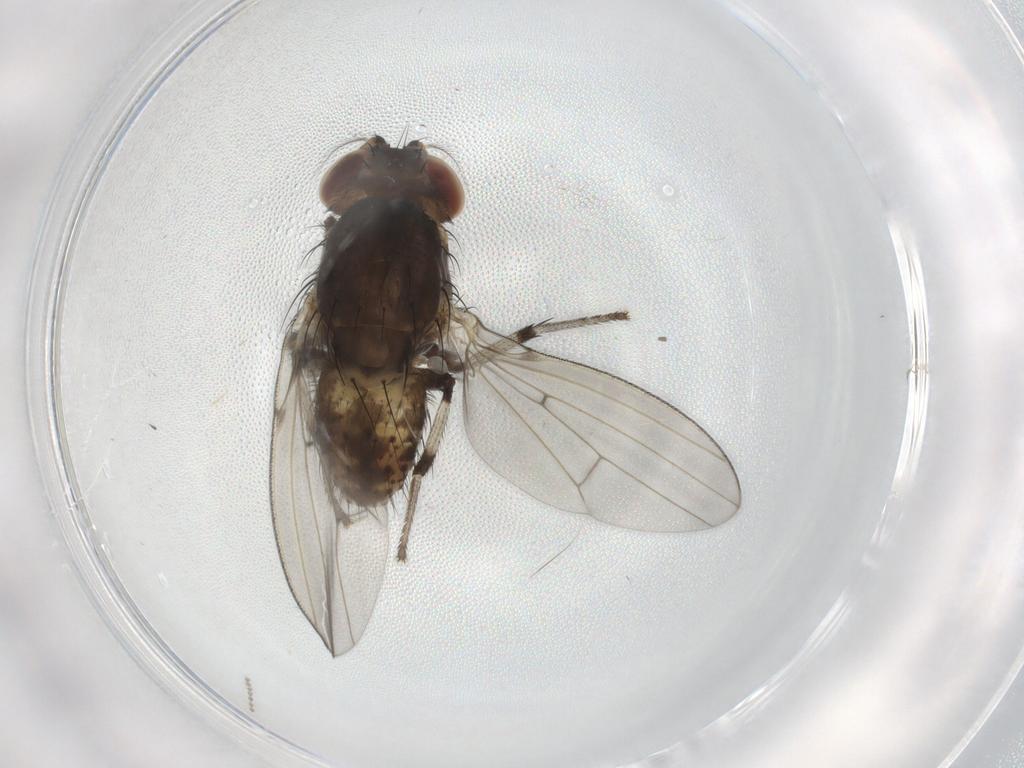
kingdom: Animalia
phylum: Arthropoda
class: Insecta
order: Diptera
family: Lauxaniidae
